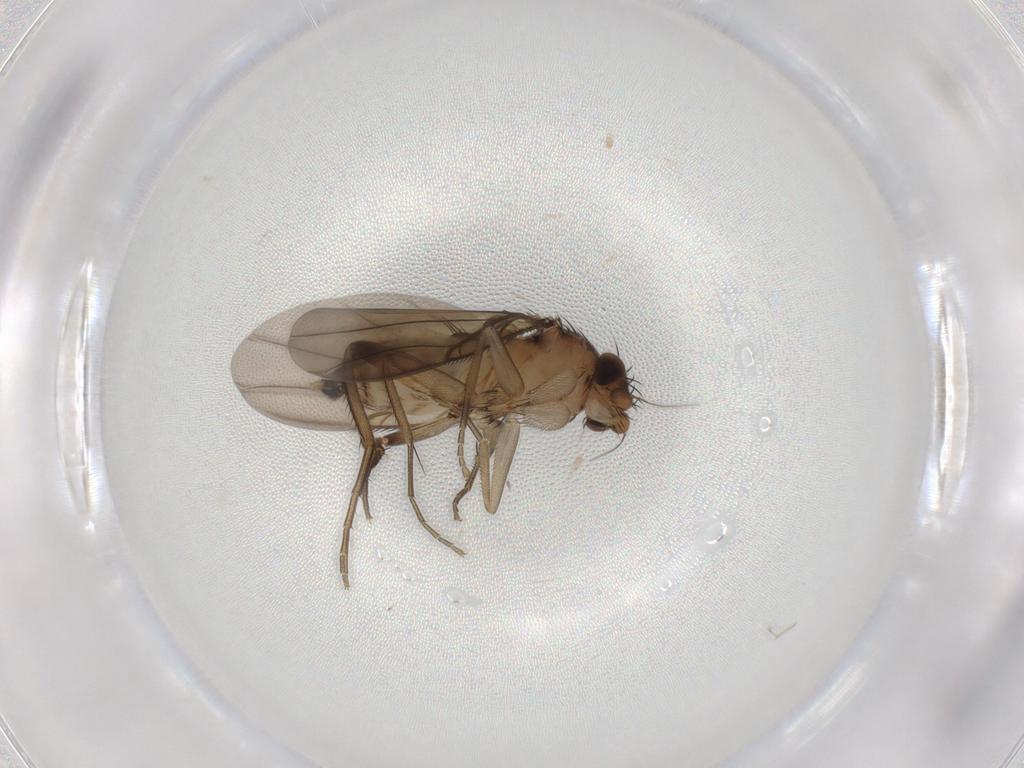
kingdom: Animalia
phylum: Arthropoda
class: Insecta
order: Diptera
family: Phoridae
